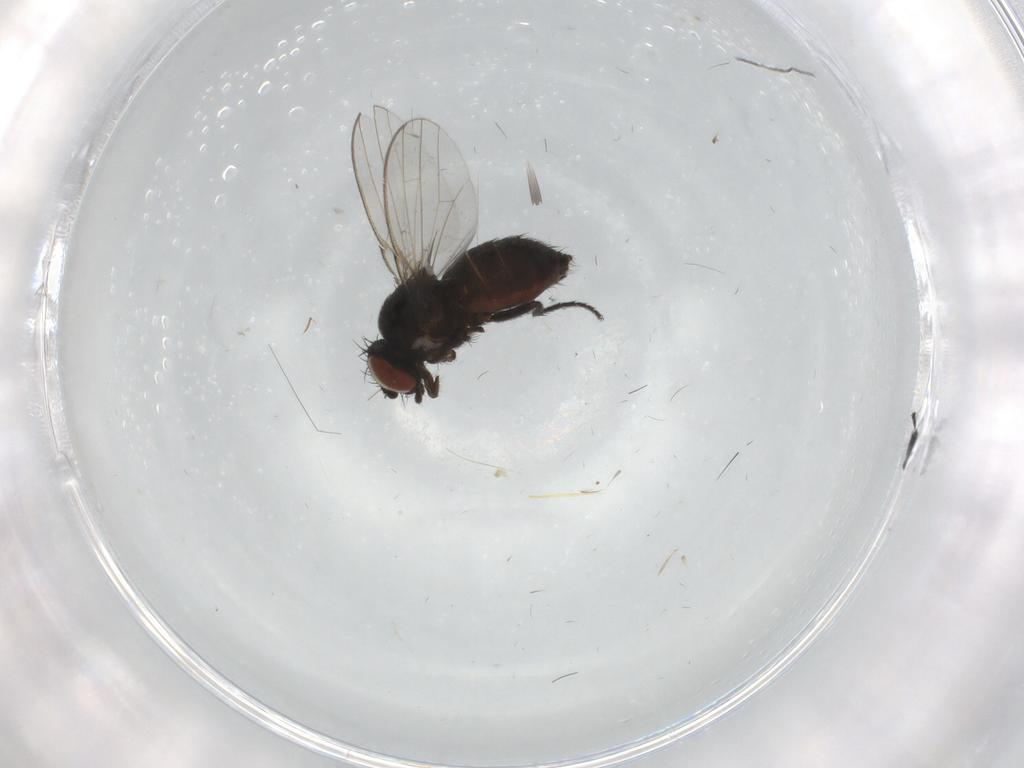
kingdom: Animalia
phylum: Arthropoda
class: Insecta
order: Diptera
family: Milichiidae
